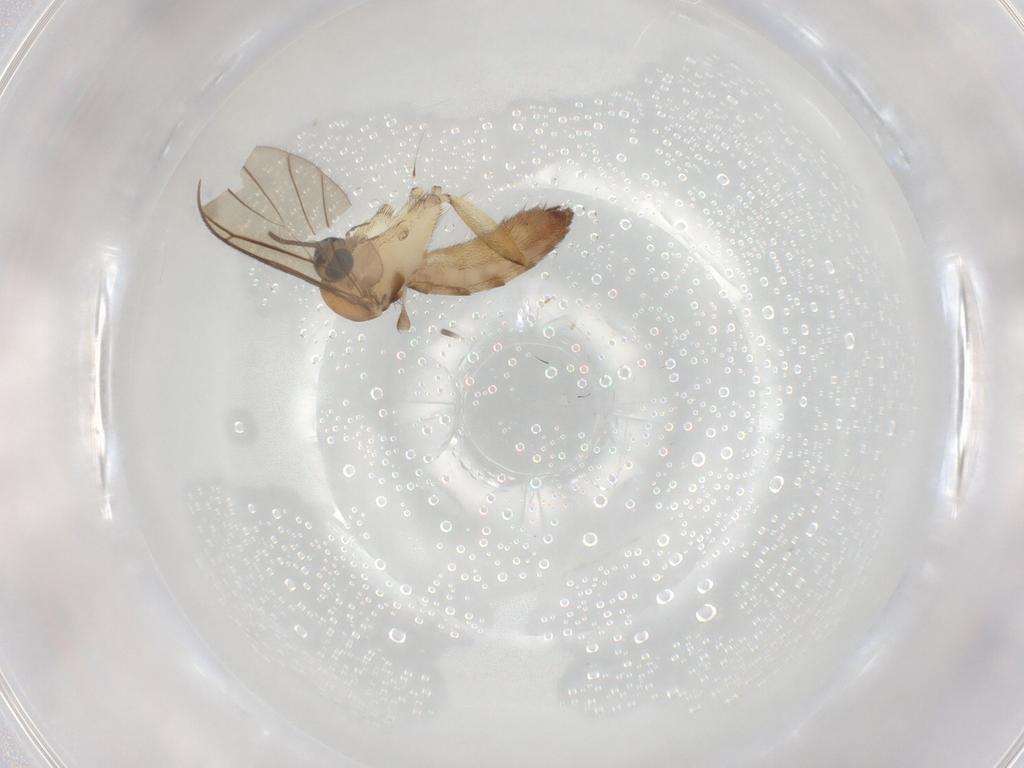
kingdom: Animalia
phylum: Arthropoda
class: Insecta
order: Diptera
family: Keroplatidae
